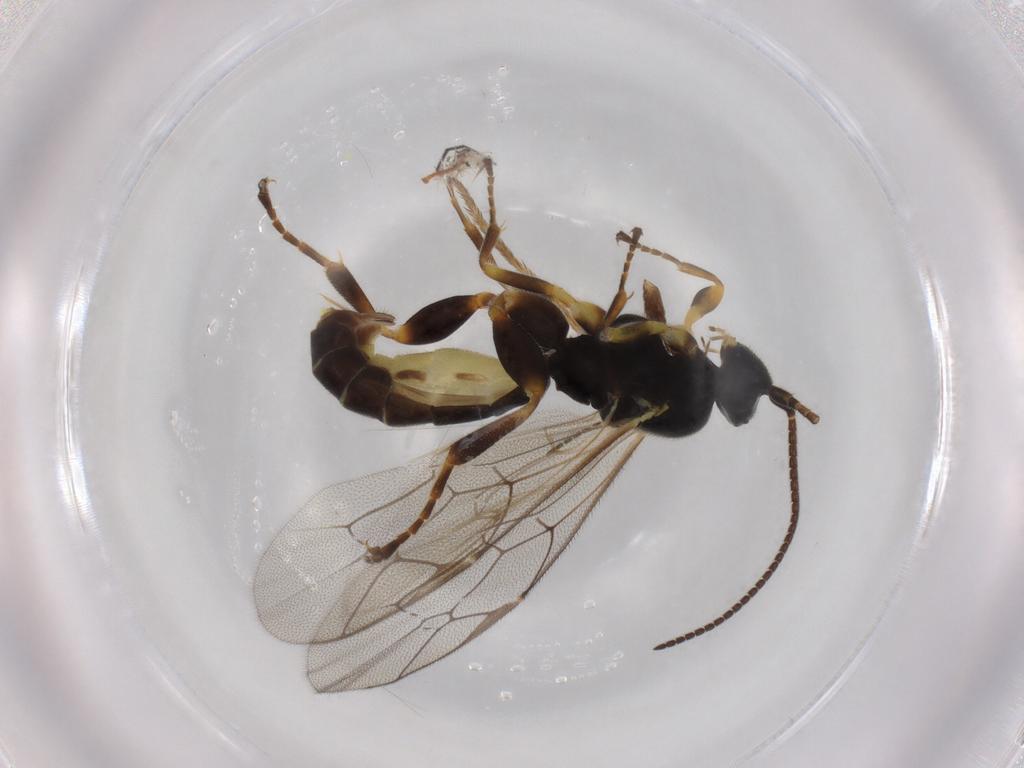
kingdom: Animalia
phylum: Arthropoda
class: Insecta
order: Hymenoptera
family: Ichneumonidae
